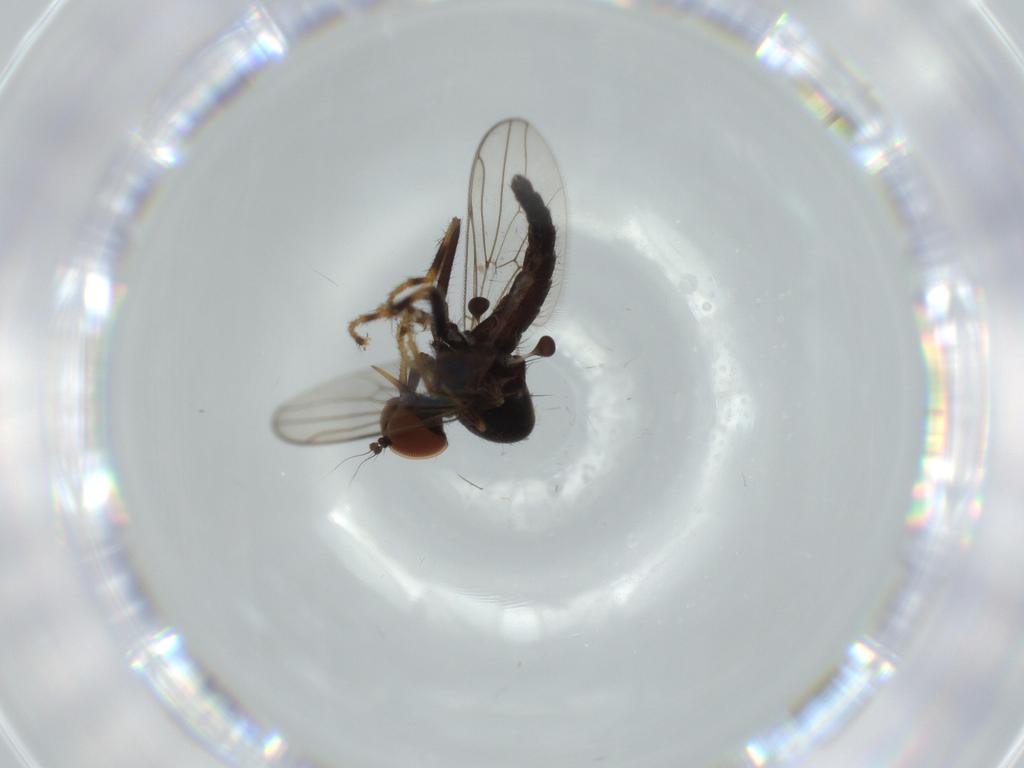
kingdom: Animalia
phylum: Arthropoda
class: Insecta
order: Diptera
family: Hybotidae
